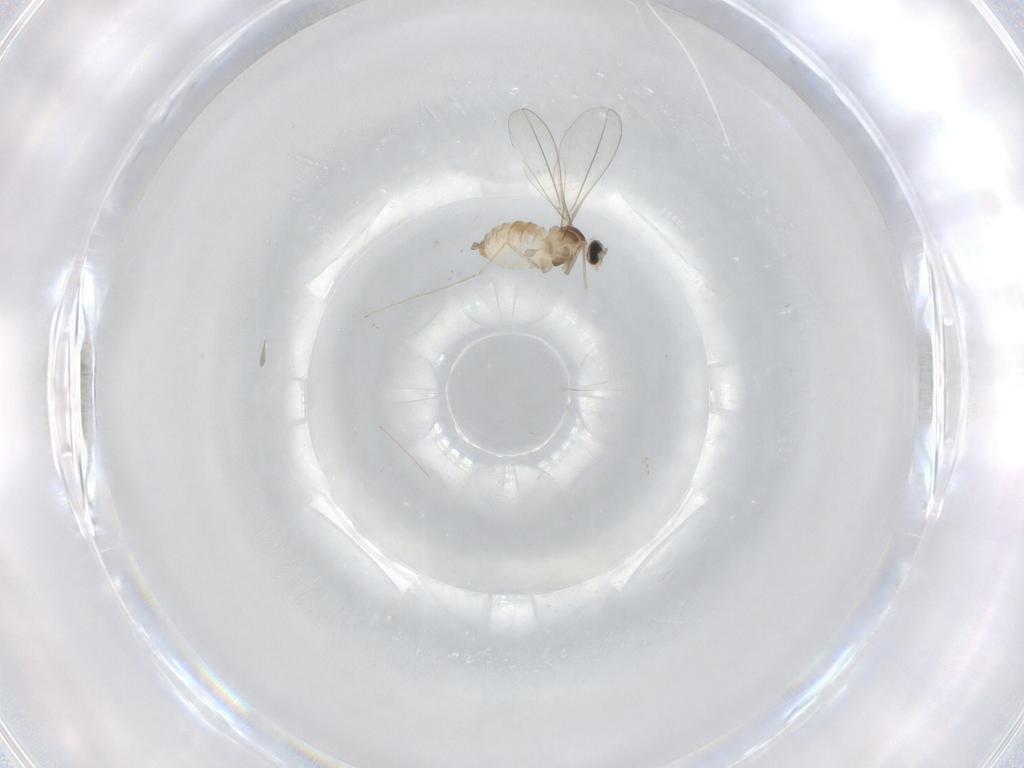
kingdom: Animalia
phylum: Arthropoda
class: Insecta
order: Diptera
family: Cecidomyiidae
